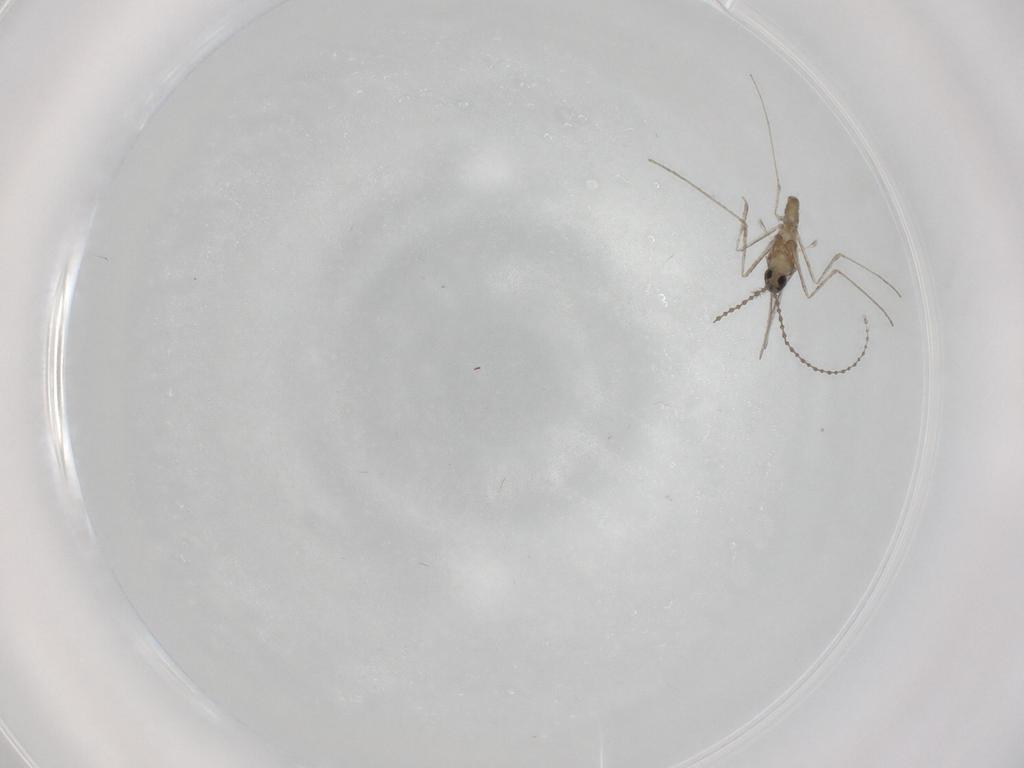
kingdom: Animalia
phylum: Arthropoda
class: Insecta
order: Diptera
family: Cecidomyiidae
